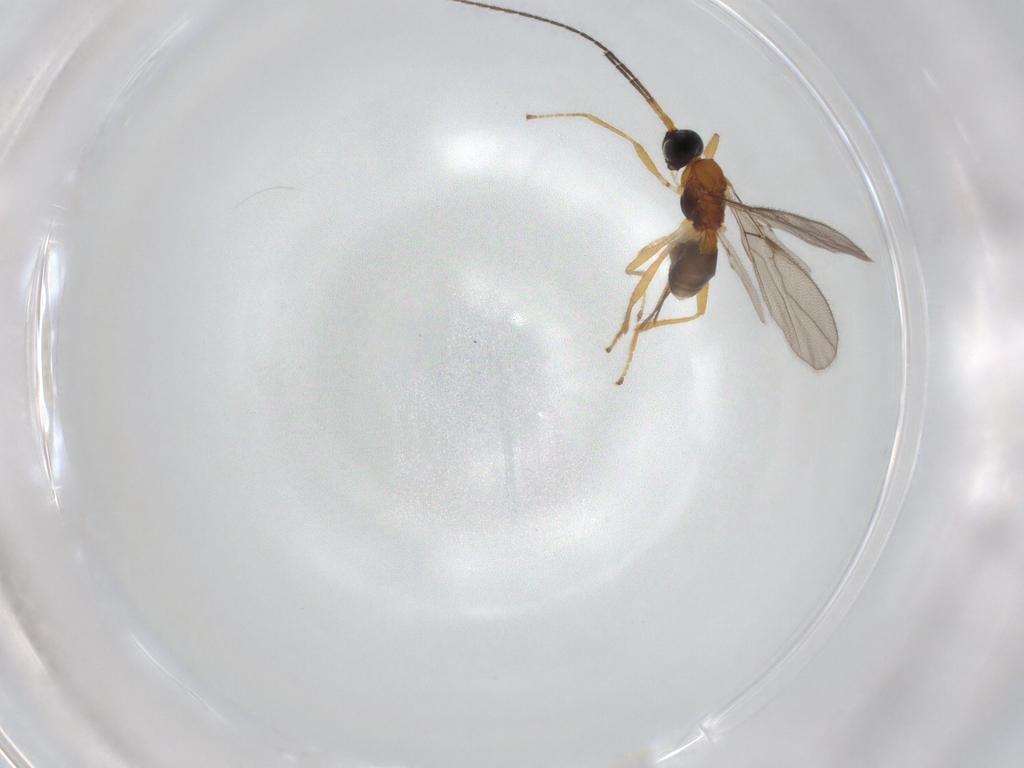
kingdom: Animalia
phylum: Arthropoda
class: Insecta
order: Hymenoptera
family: Braconidae
